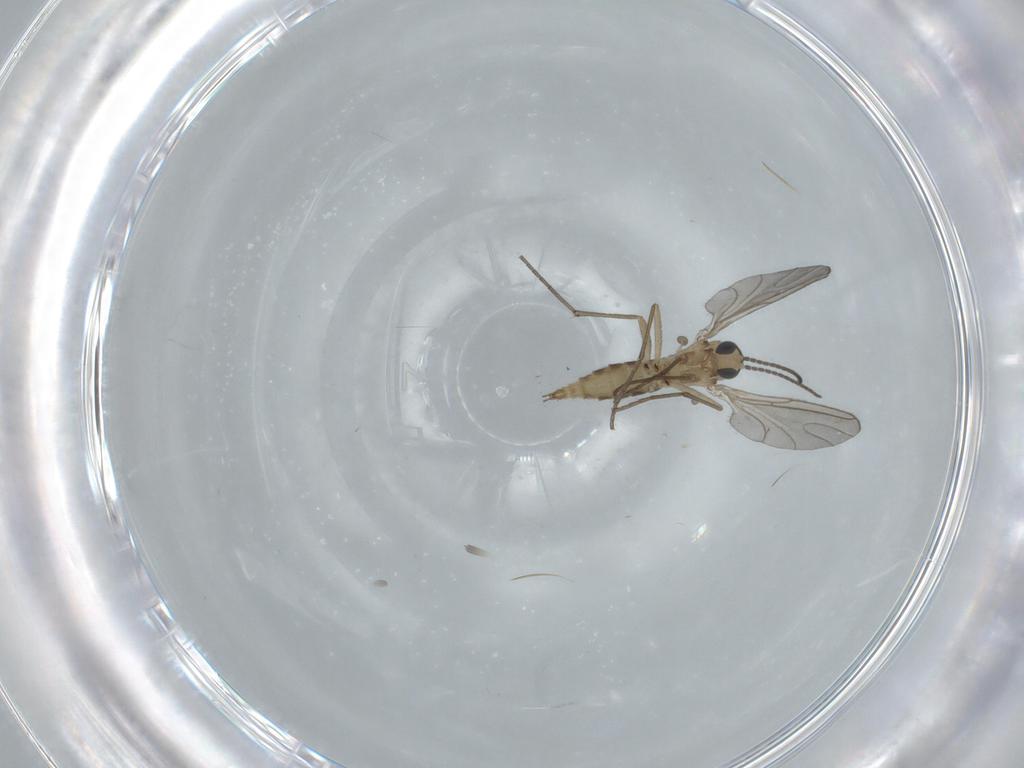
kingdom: Animalia
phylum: Arthropoda
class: Insecta
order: Diptera
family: Sciaridae
